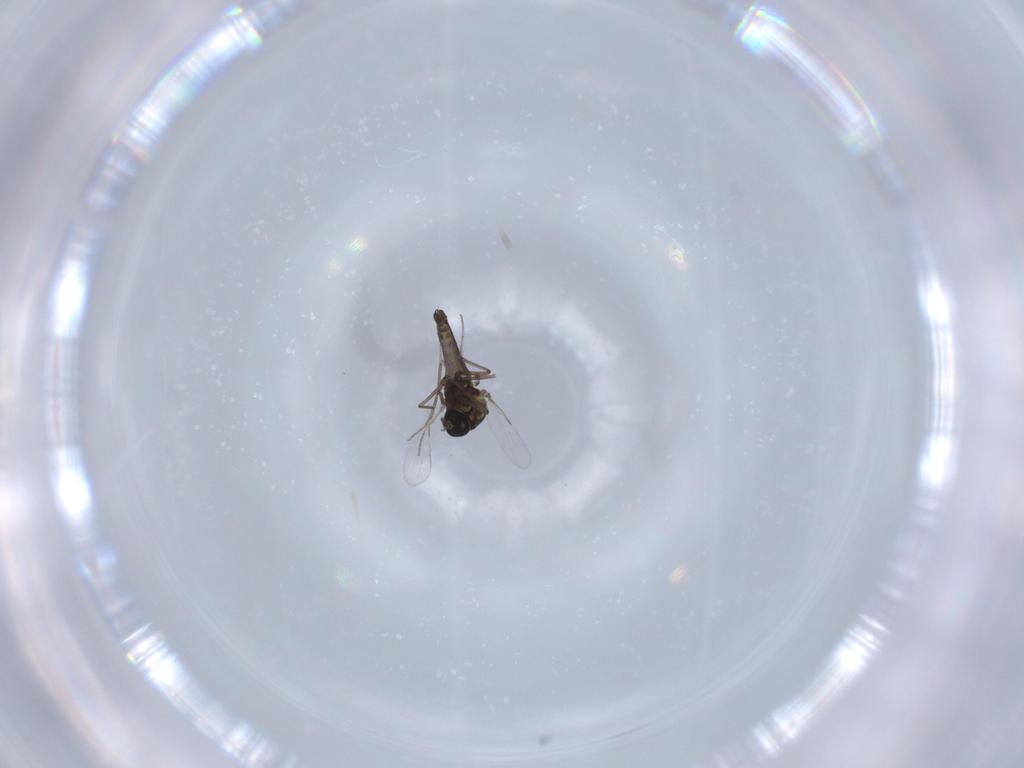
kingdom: Animalia
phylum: Arthropoda
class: Insecta
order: Diptera
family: Ceratopogonidae
